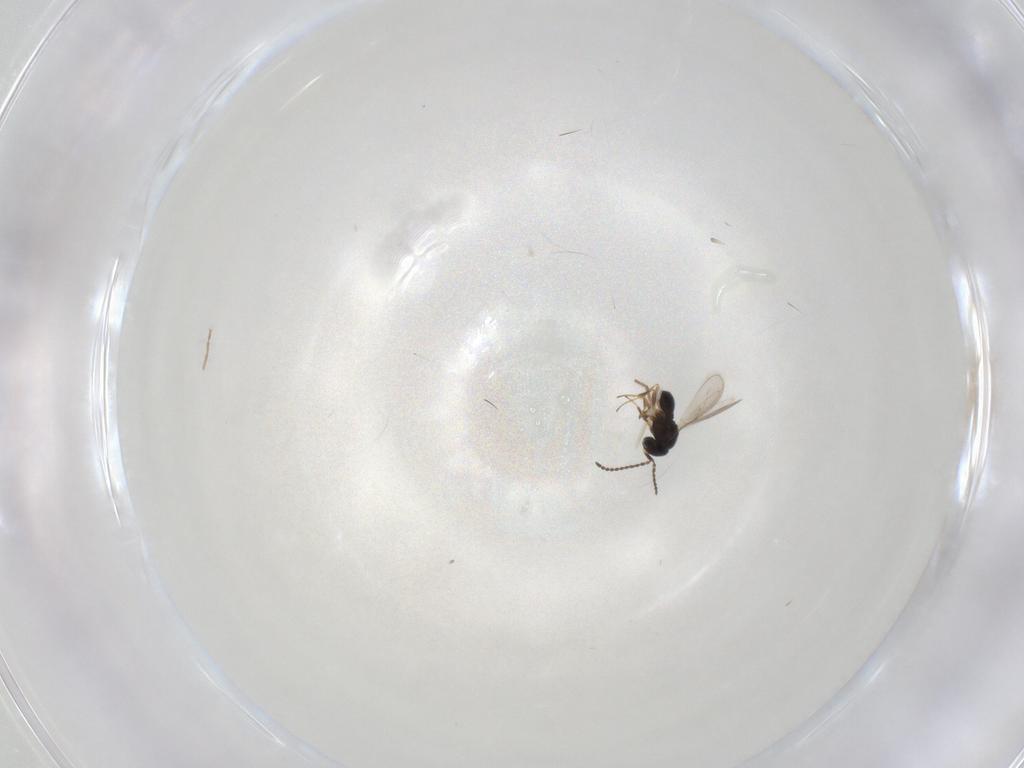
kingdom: Animalia
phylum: Arthropoda
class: Insecta
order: Hymenoptera
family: Scelionidae
